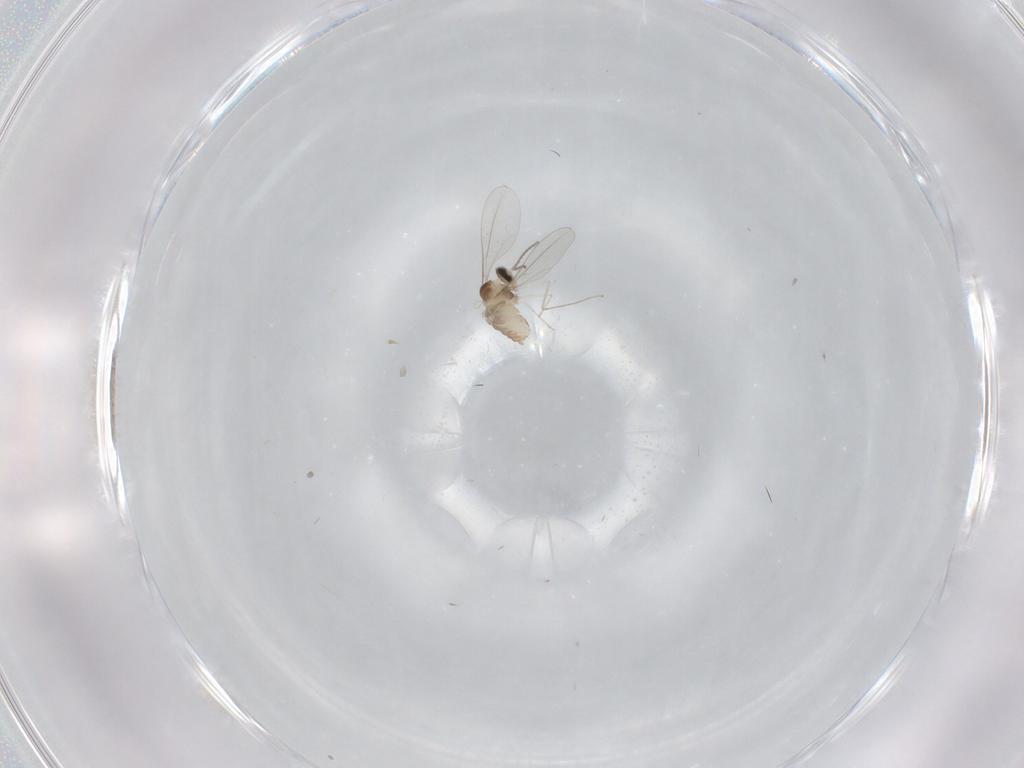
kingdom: Animalia
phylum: Arthropoda
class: Insecta
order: Diptera
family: Cecidomyiidae
